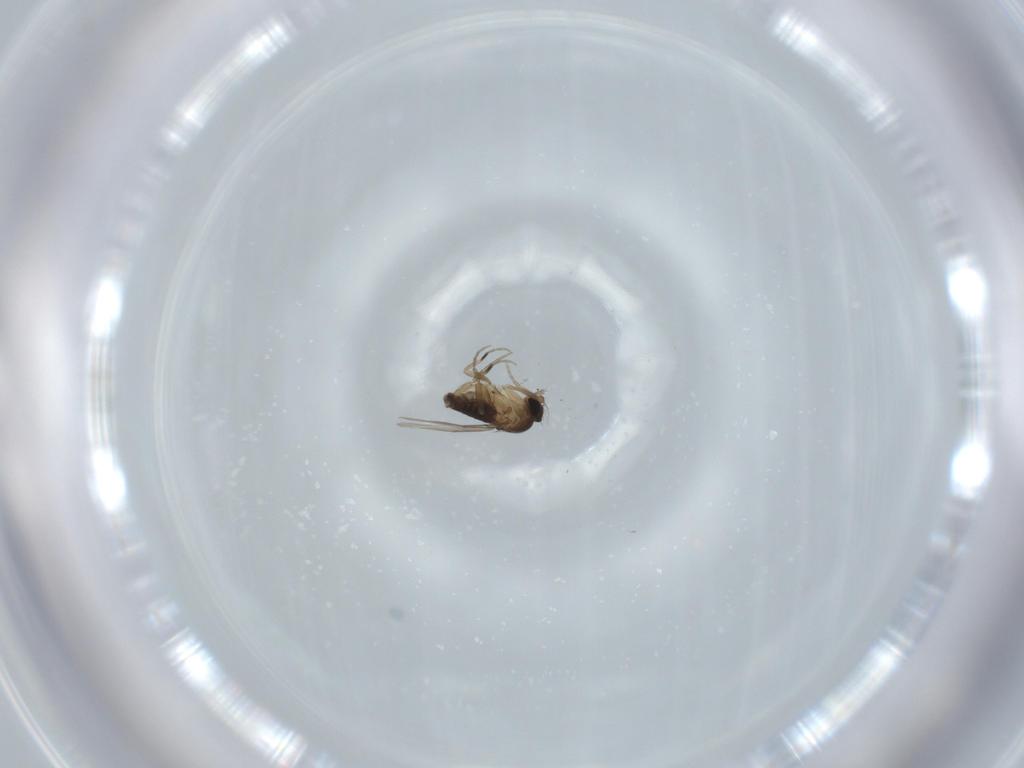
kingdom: Animalia
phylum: Arthropoda
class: Insecta
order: Diptera
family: Phoridae
